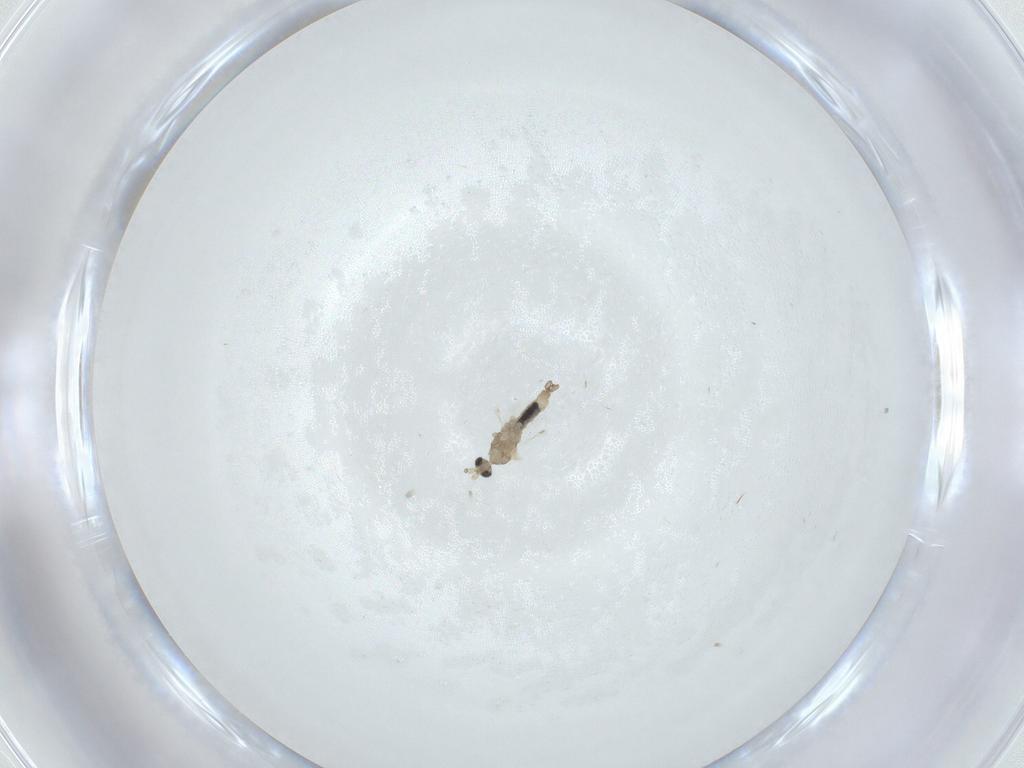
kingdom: Animalia
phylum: Arthropoda
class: Insecta
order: Diptera
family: Cecidomyiidae
